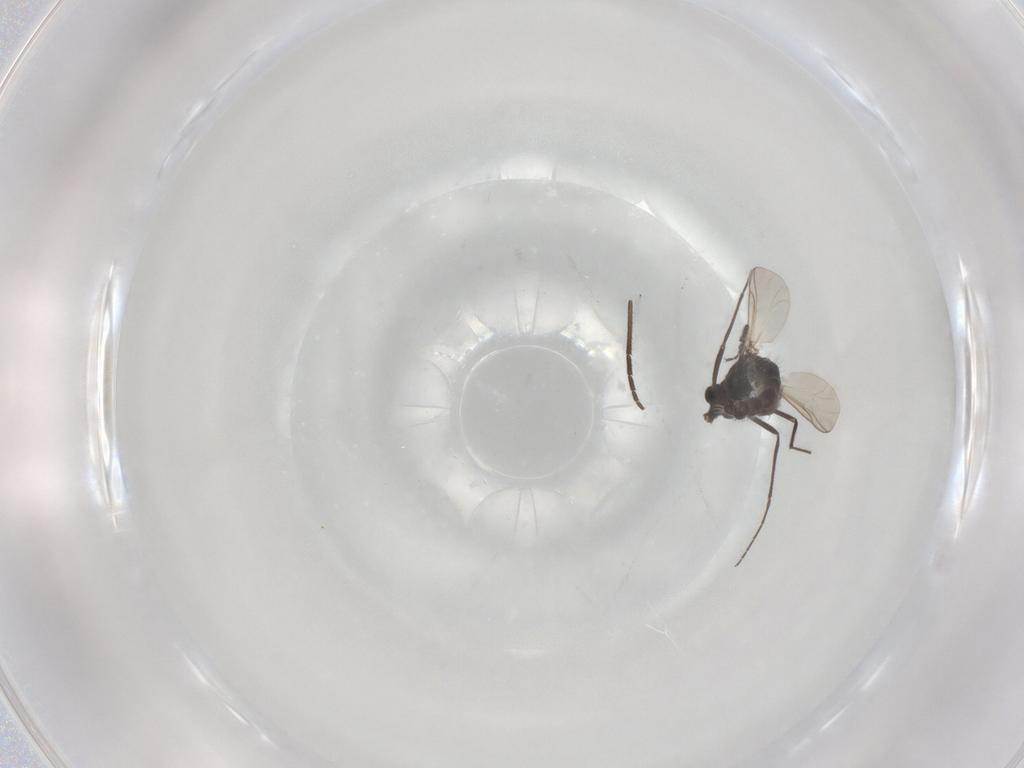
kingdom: Animalia
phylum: Arthropoda
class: Insecta
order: Diptera
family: Chironomidae
